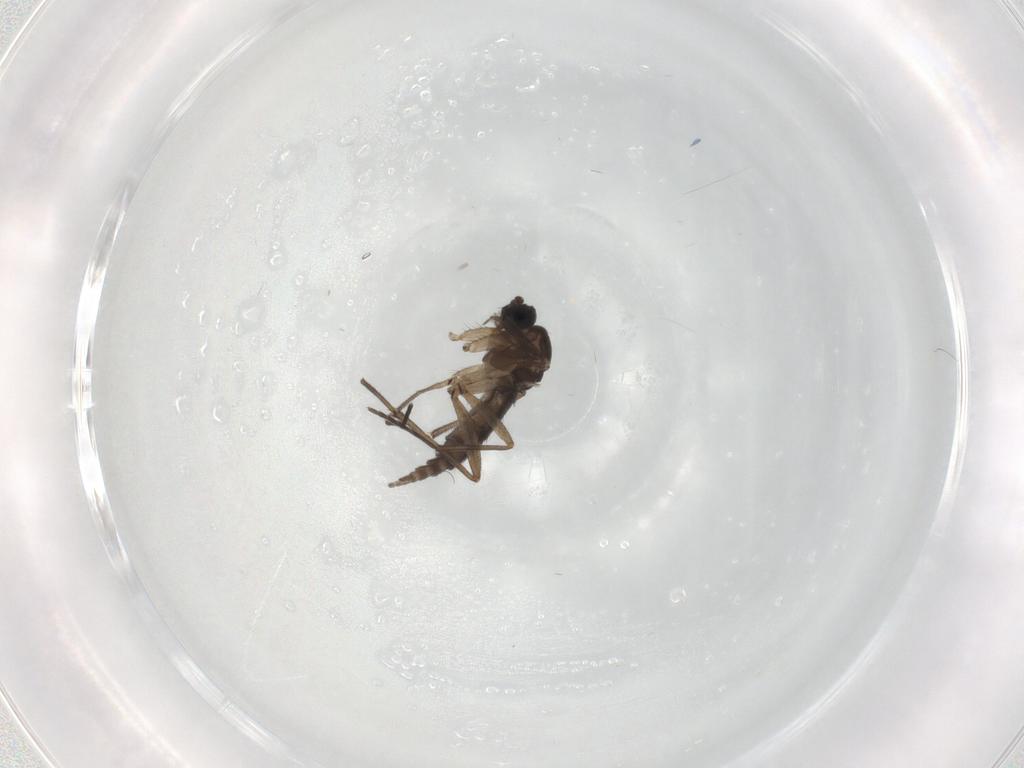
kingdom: Animalia
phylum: Arthropoda
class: Insecta
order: Diptera
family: Sciaridae
